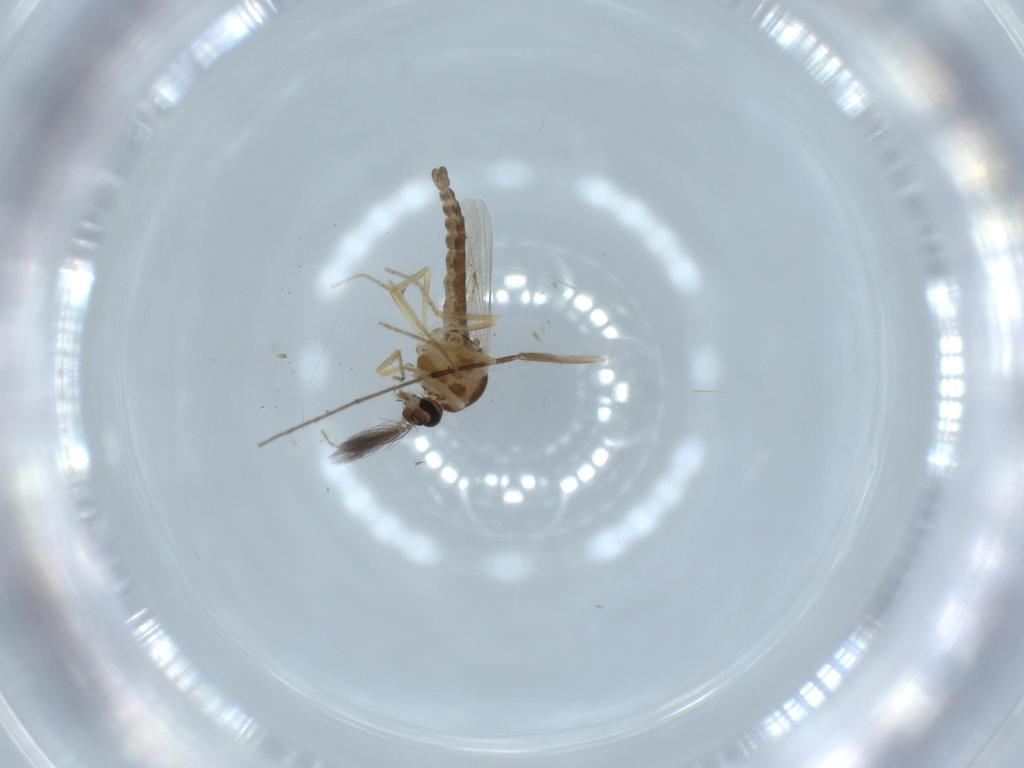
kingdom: Animalia
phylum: Arthropoda
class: Insecta
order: Diptera
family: Ceratopogonidae
